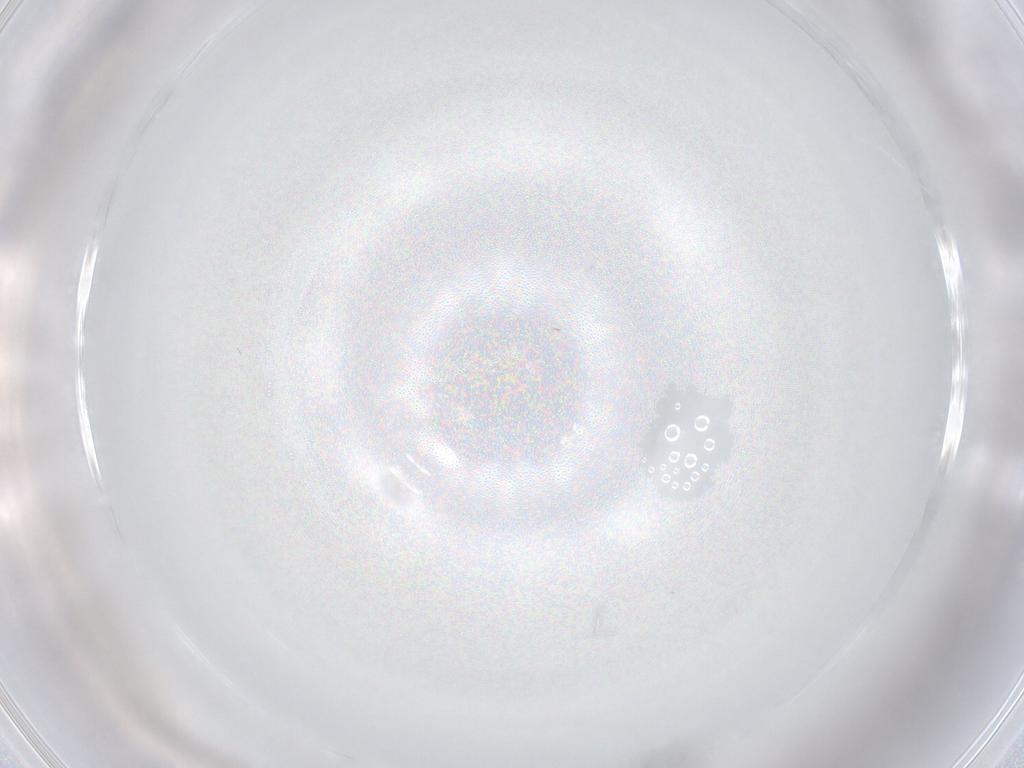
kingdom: Animalia
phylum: Arthropoda
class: Insecta
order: Hymenoptera
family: Pteromalidae
